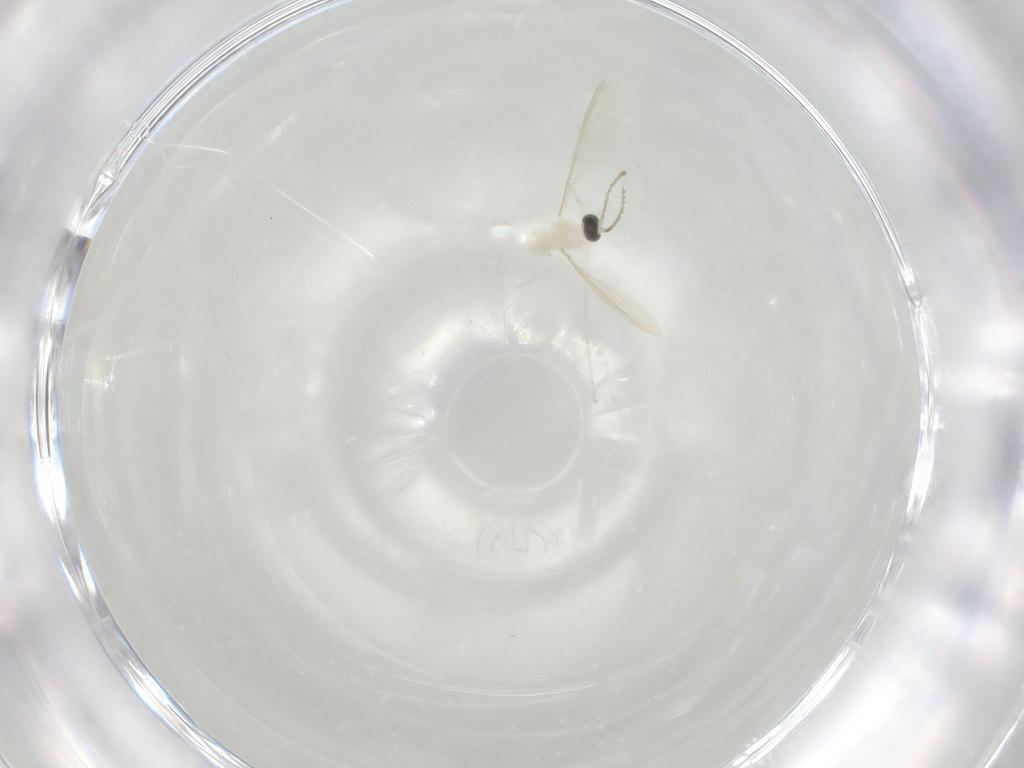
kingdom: Animalia
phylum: Arthropoda
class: Insecta
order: Diptera
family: Cecidomyiidae
